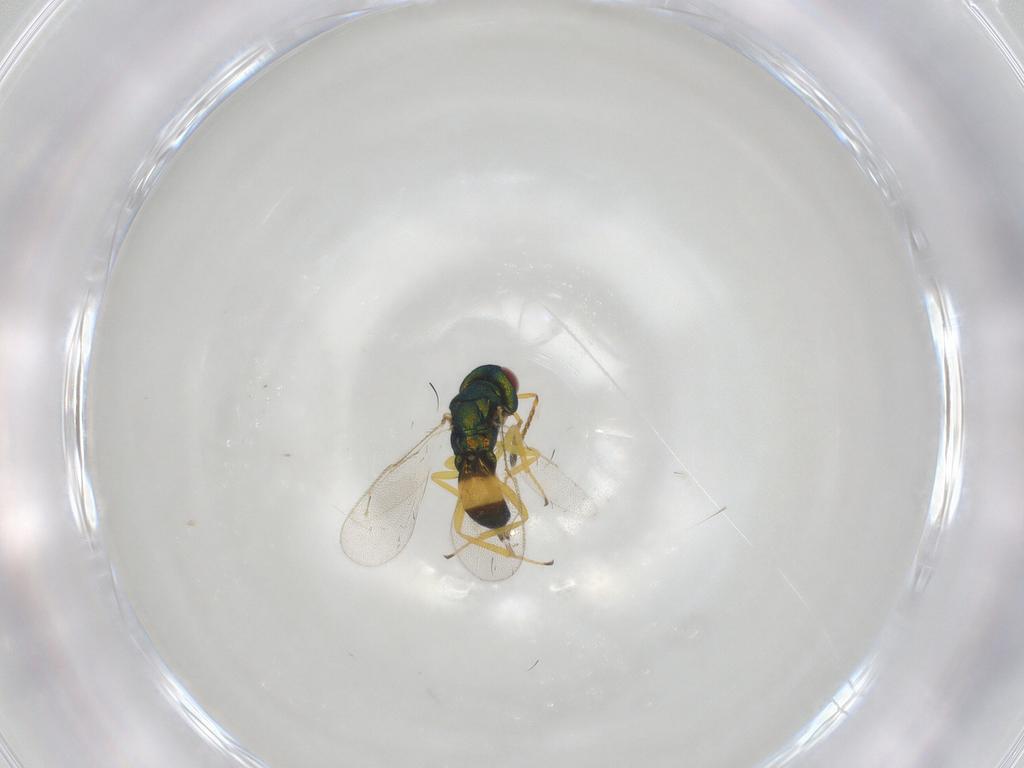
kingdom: Animalia
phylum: Arthropoda
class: Insecta
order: Hymenoptera
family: Pteromalidae
